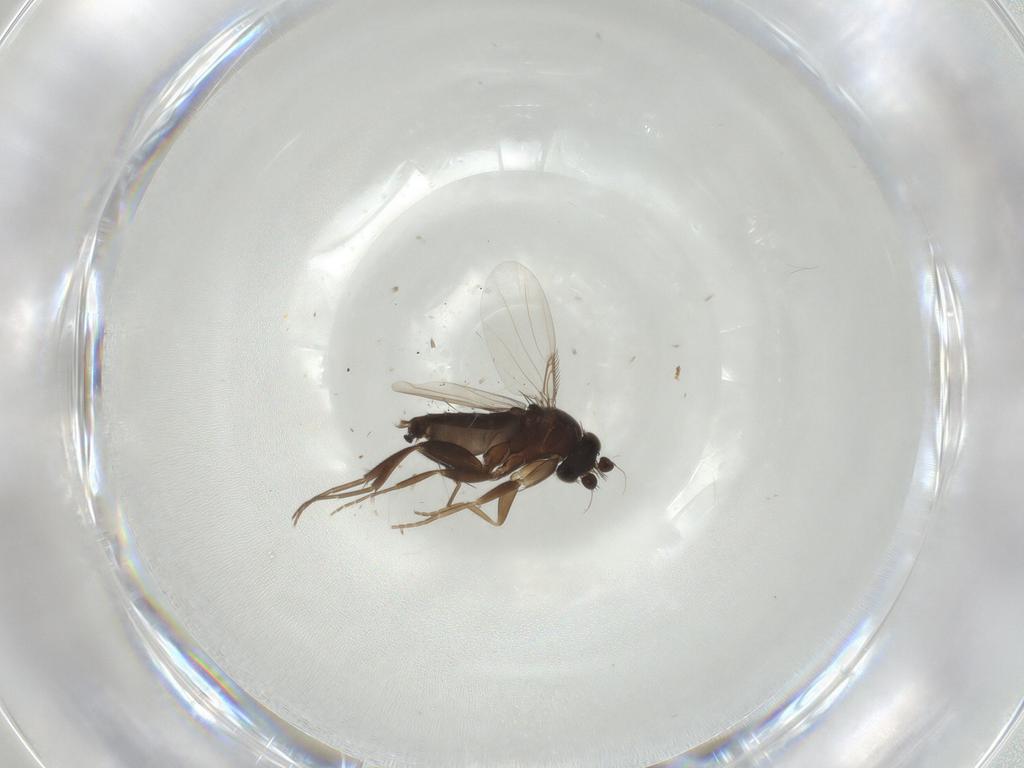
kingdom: Animalia
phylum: Arthropoda
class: Insecta
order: Diptera
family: Phoridae
